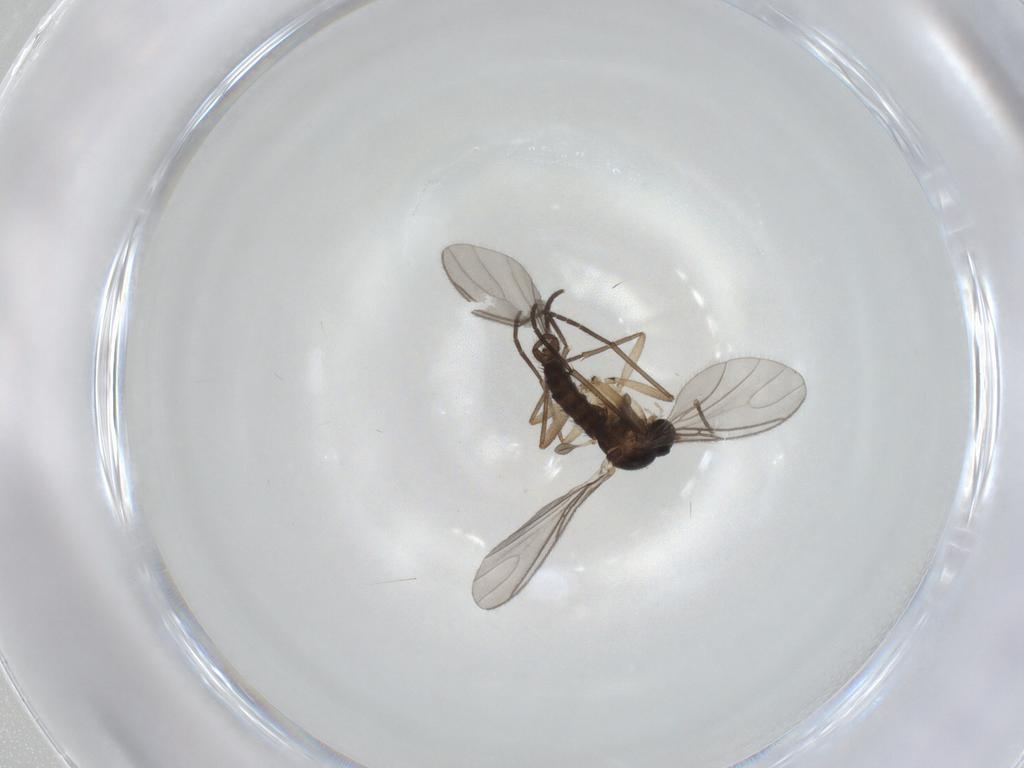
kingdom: Animalia
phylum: Arthropoda
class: Insecta
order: Diptera
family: Sciaridae
